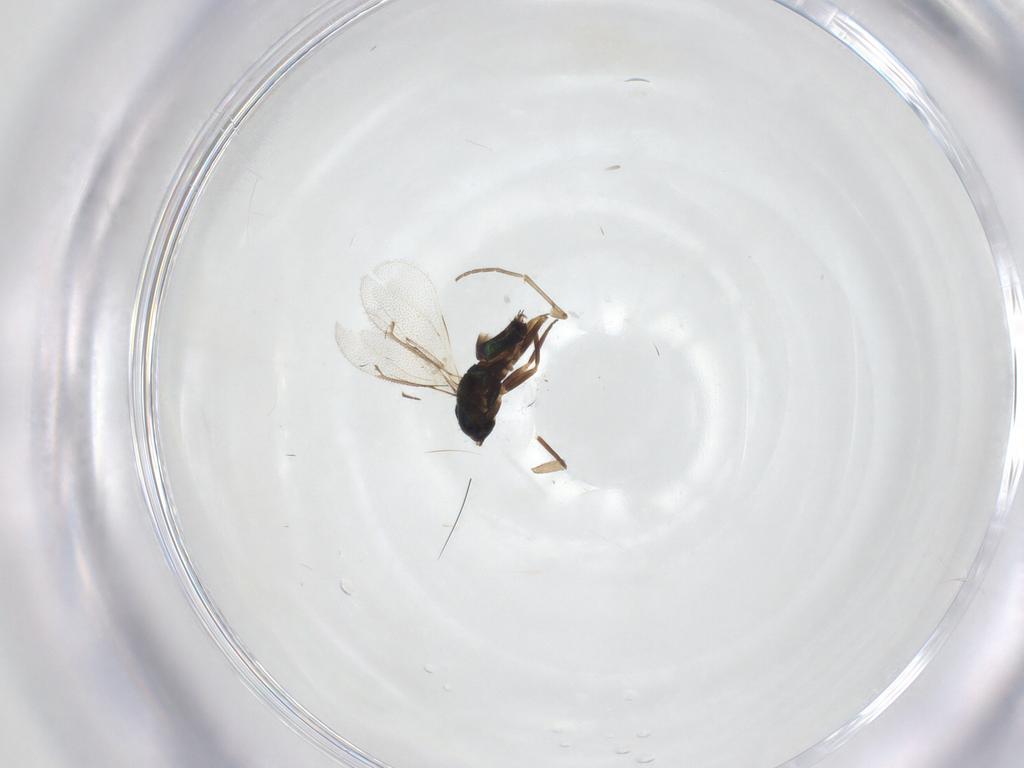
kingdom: Animalia
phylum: Arthropoda
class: Insecta
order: Diptera
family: Sciaridae
